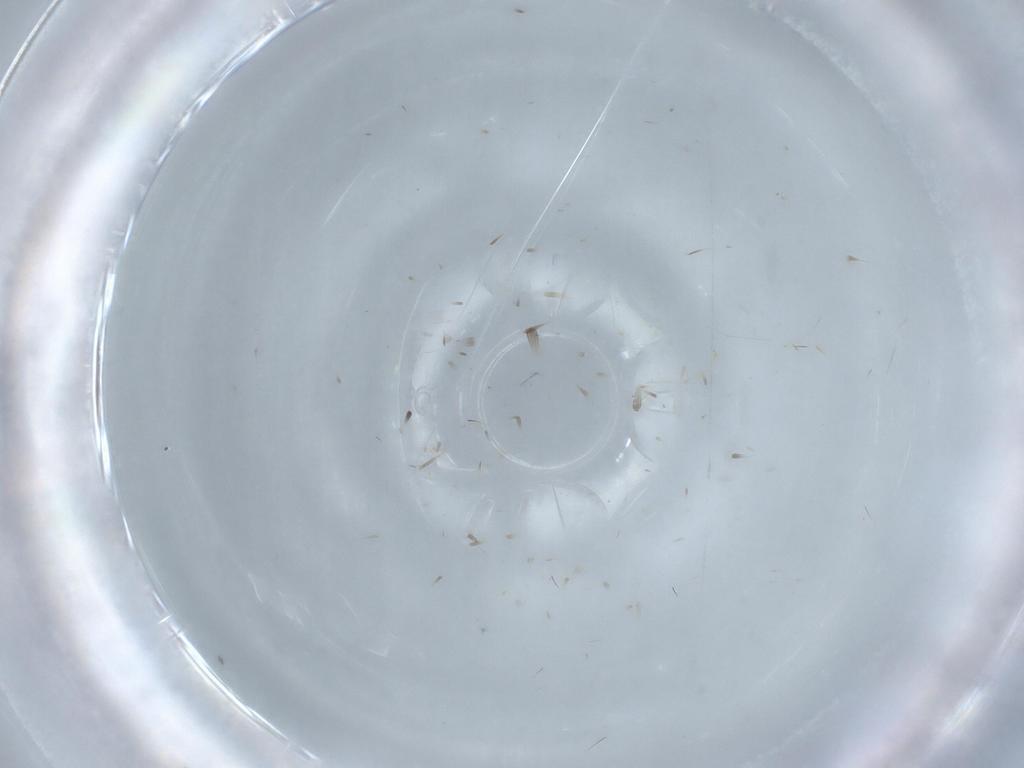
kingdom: Animalia
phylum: Arthropoda
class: Insecta
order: Diptera
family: Cecidomyiidae
